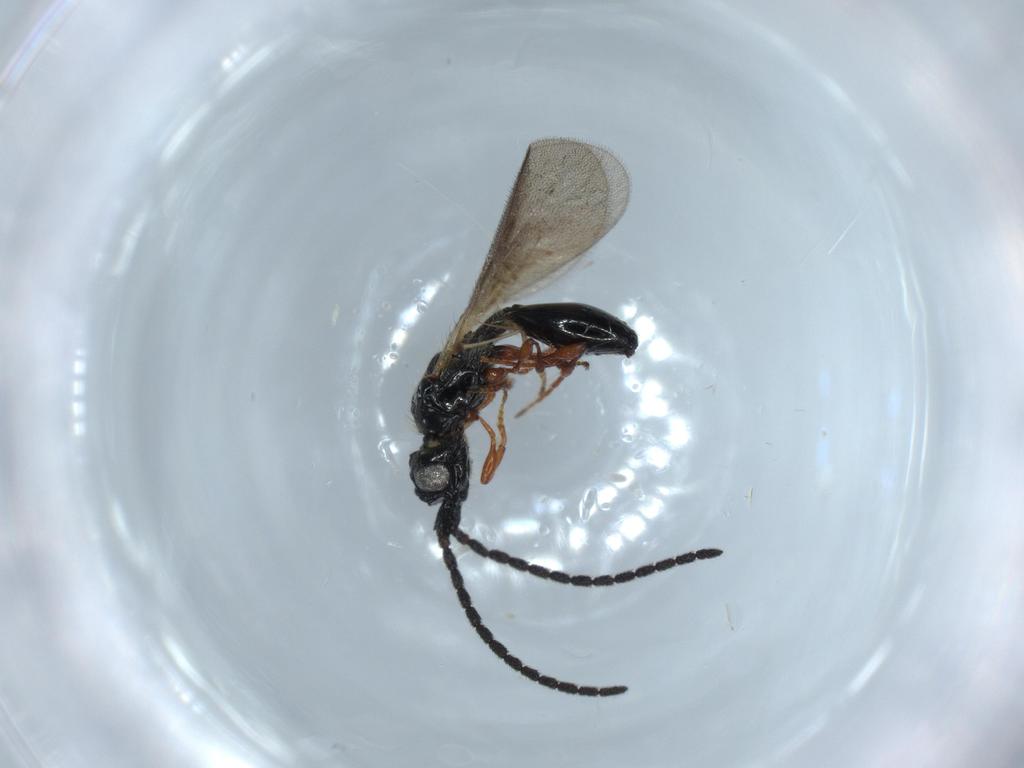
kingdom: Animalia
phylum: Arthropoda
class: Insecta
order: Hymenoptera
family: Diapriidae
